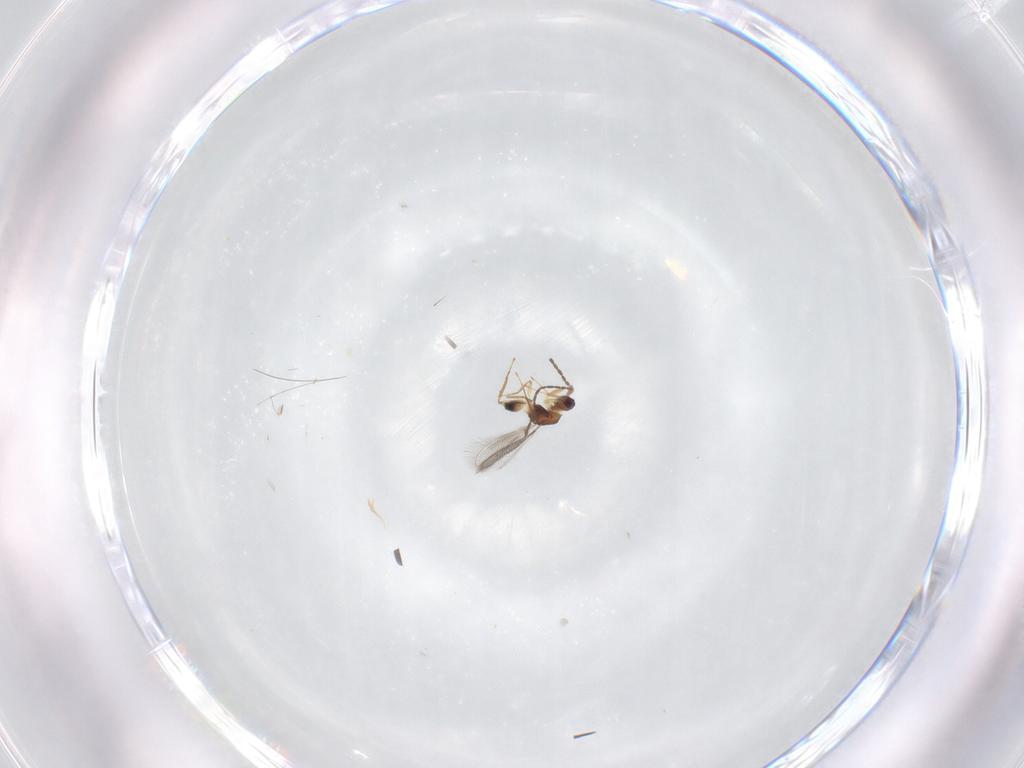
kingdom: Animalia
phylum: Arthropoda
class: Insecta
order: Hymenoptera
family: Mymaridae
